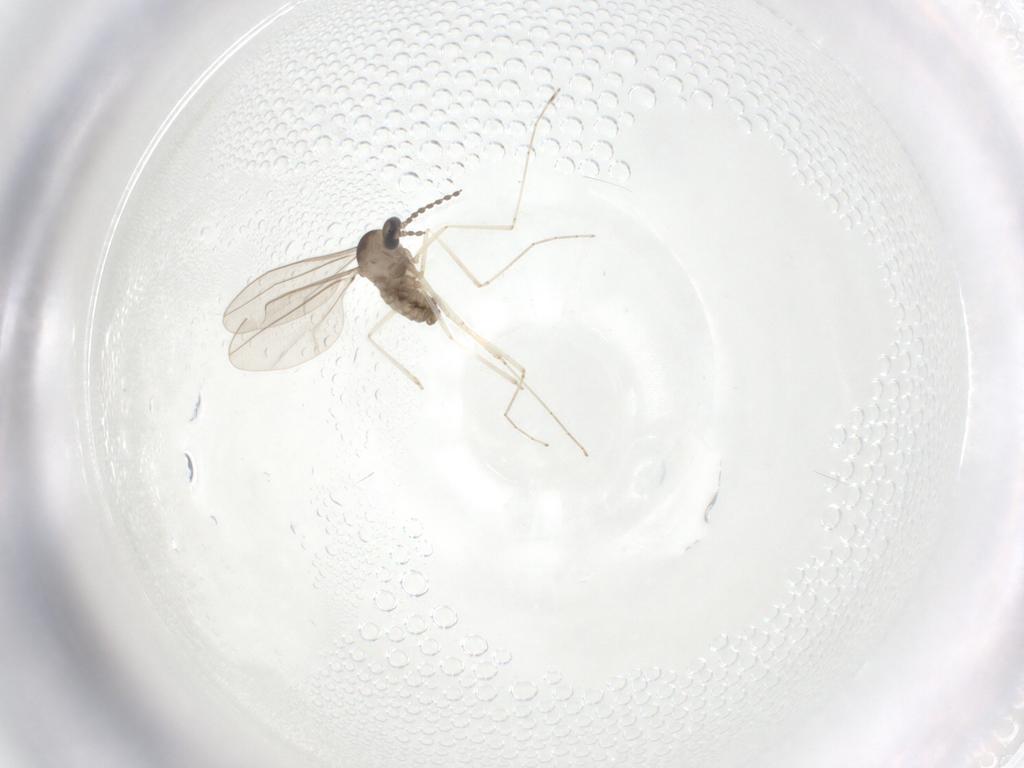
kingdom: Animalia
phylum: Arthropoda
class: Insecta
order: Diptera
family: Cecidomyiidae
